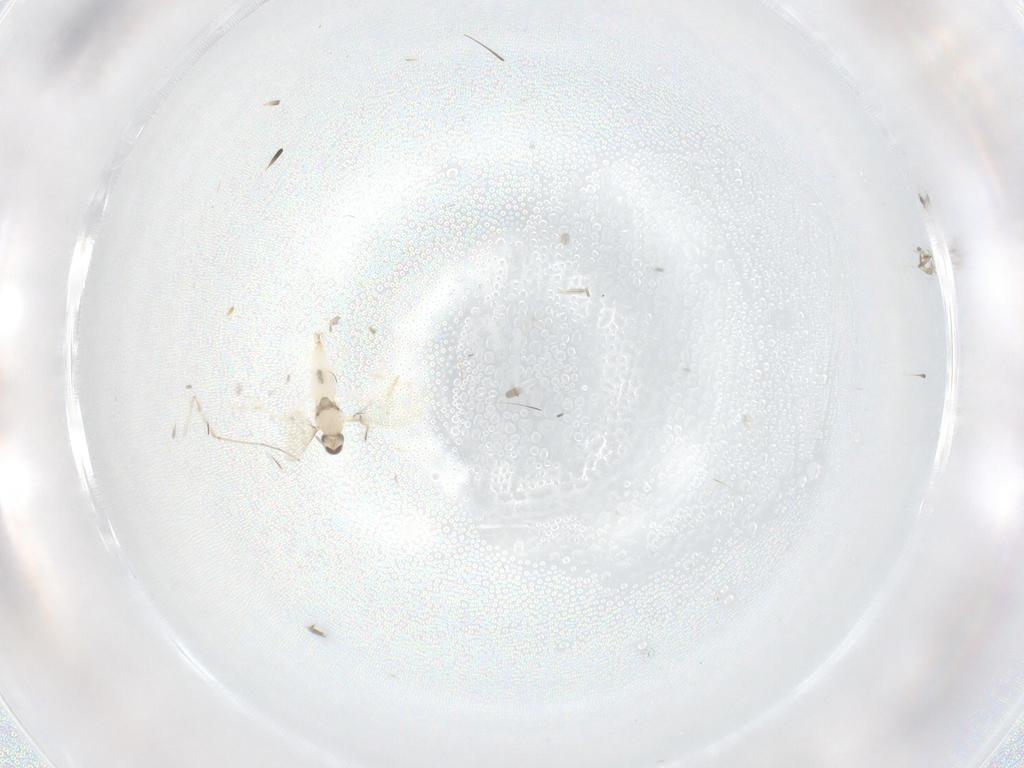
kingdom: Animalia
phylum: Arthropoda
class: Insecta
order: Diptera
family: Cecidomyiidae
